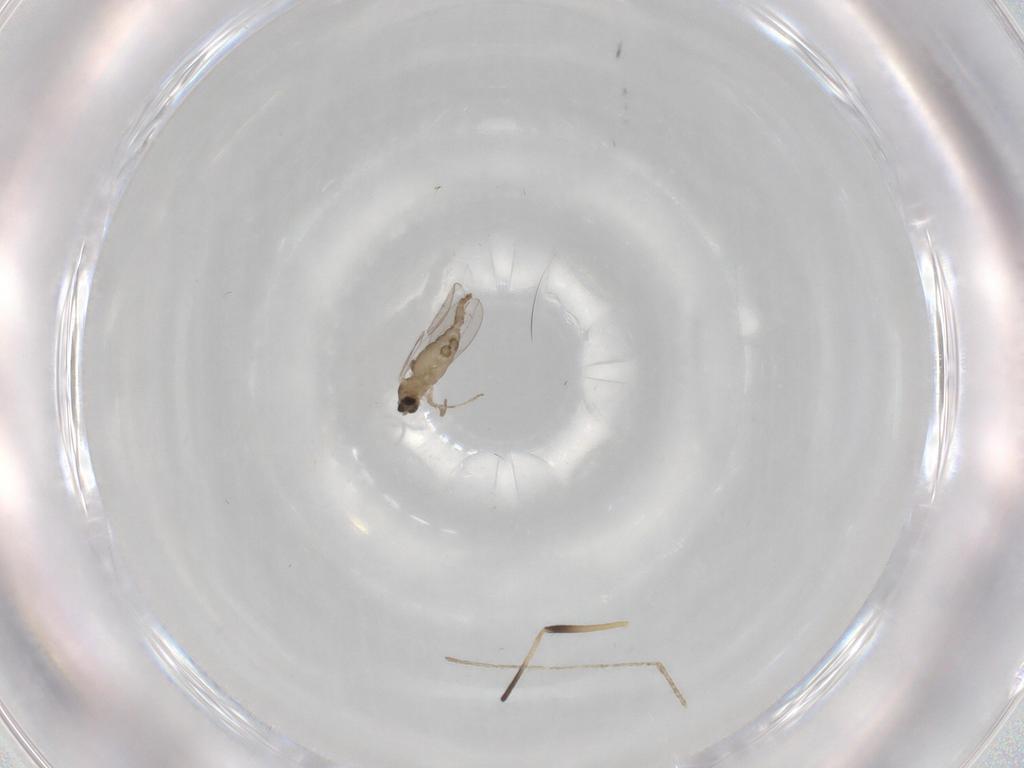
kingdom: Animalia
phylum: Arthropoda
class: Insecta
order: Diptera
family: Cecidomyiidae
